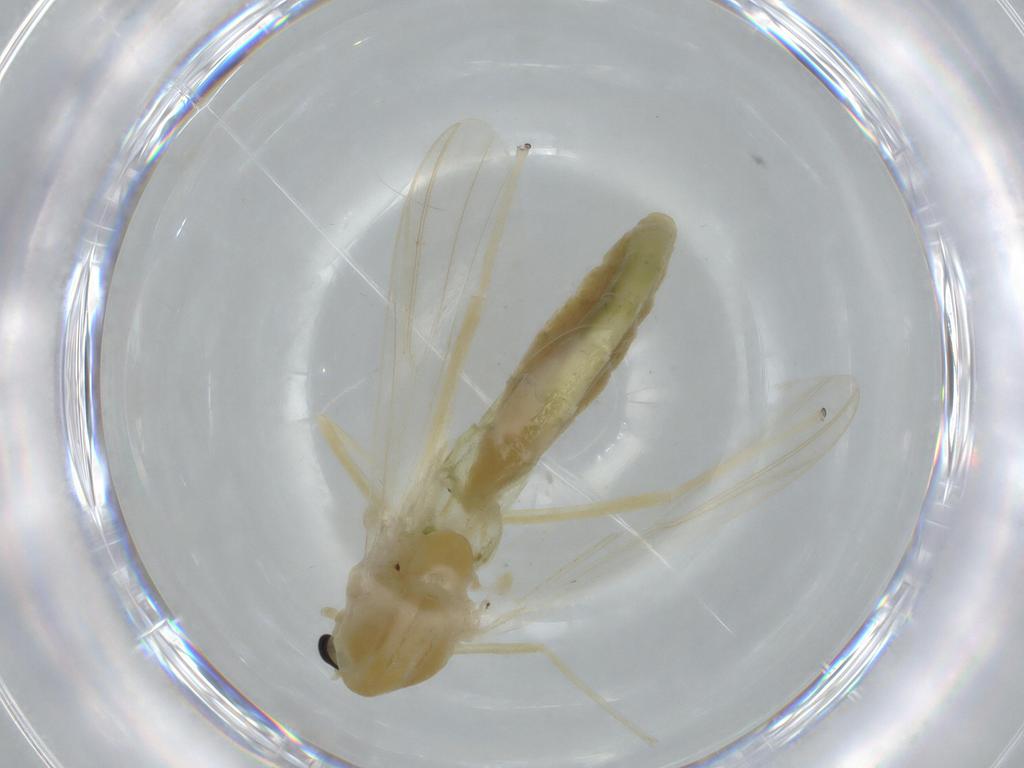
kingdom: Animalia
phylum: Arthropoda
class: Insecta
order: Diptera
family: Chironomidae
